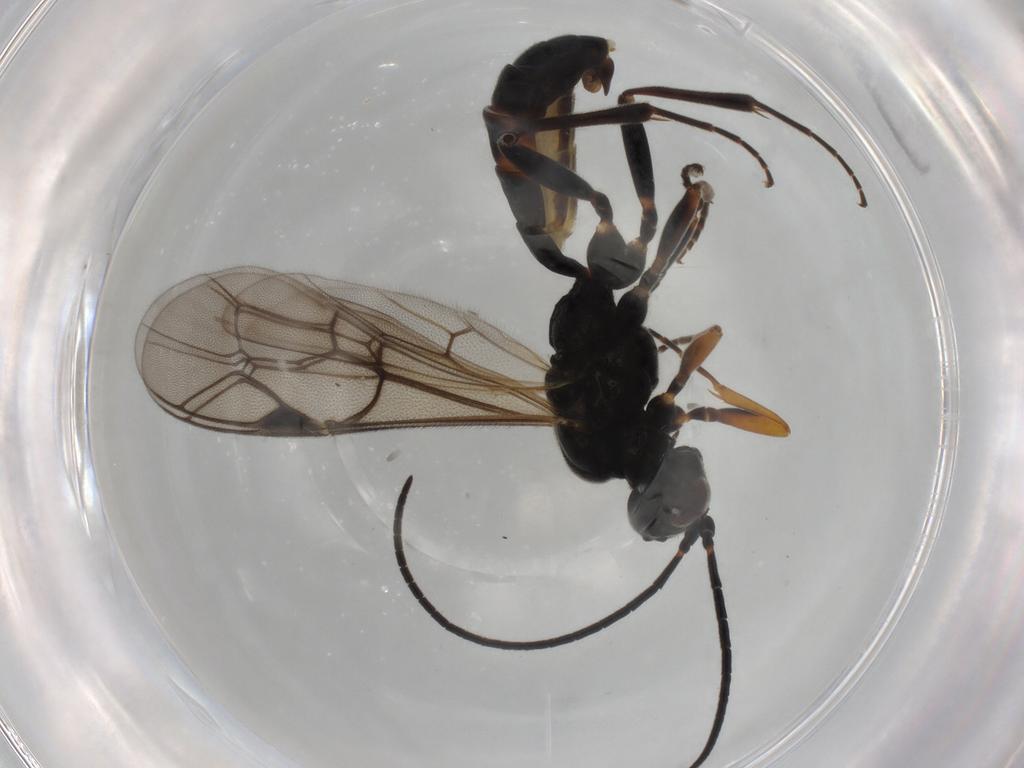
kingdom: Animalia
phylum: Arthropoda
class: Insecta
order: Hymenoptera
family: Ichneumonidae
